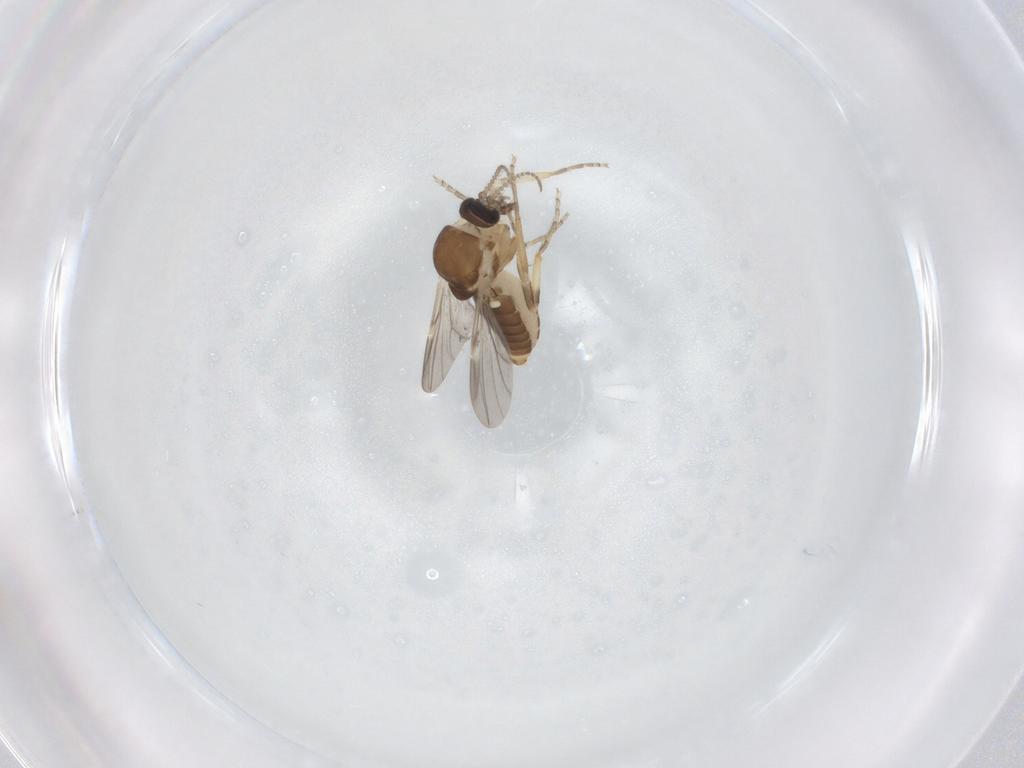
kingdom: Animalia
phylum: Arthropoda
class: Insecta
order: Diptera
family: Ceratopogonidae
